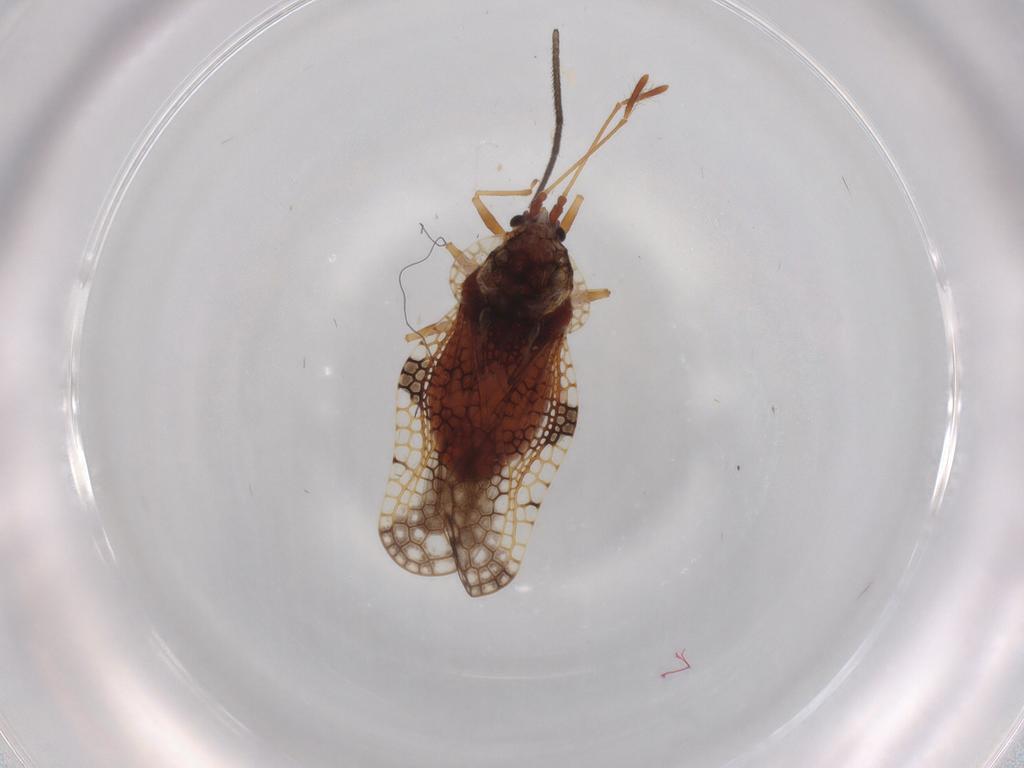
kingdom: Animalia
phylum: Arthropoda
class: Insecta
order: Hemiptera
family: Tingidae
